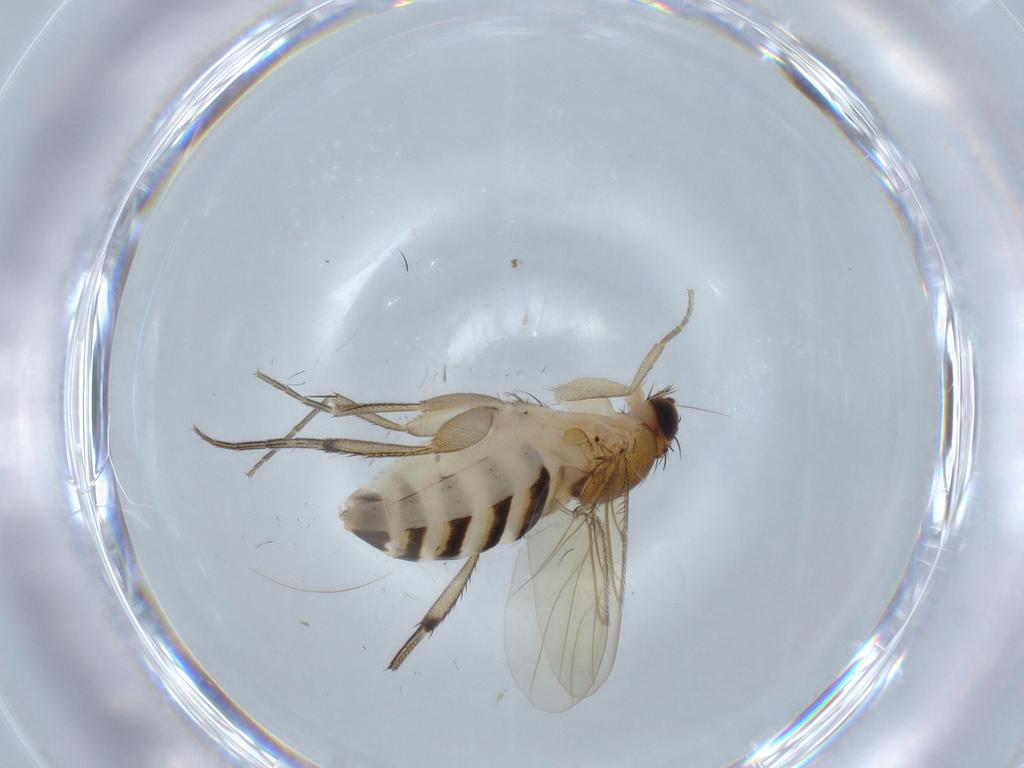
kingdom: Animalia
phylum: Arthropoda
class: Insecta
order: Diptera
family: Phoridae
